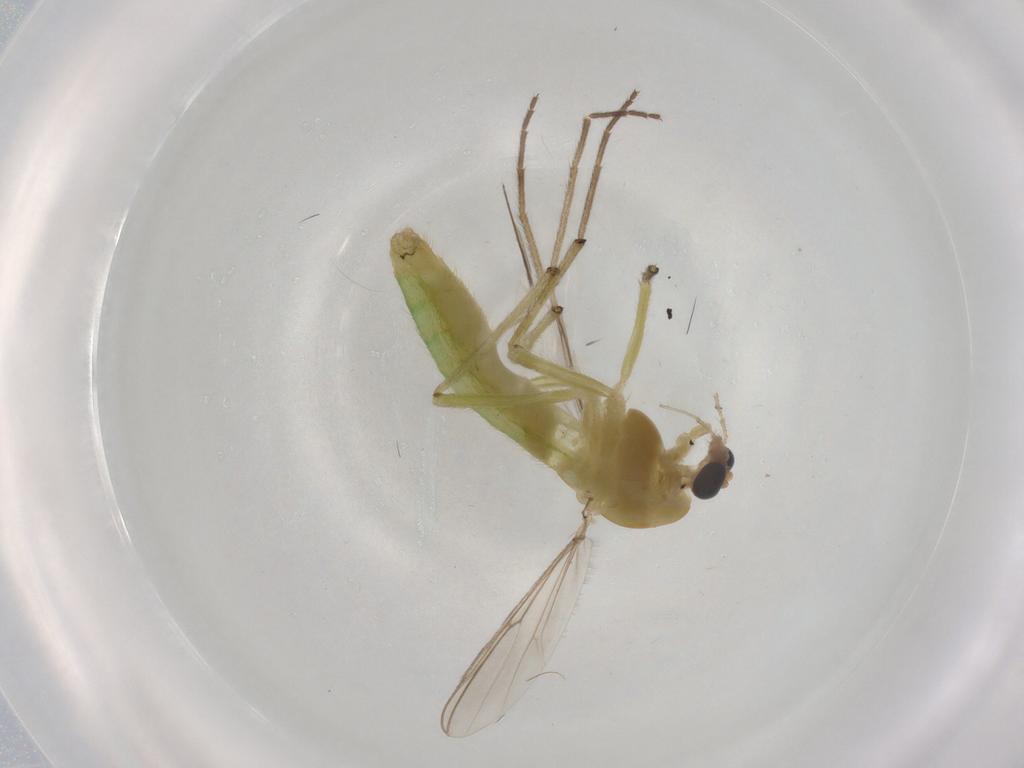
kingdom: Animalia
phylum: Arthropoda
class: Insecta
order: Diptera
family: Chironomidae
